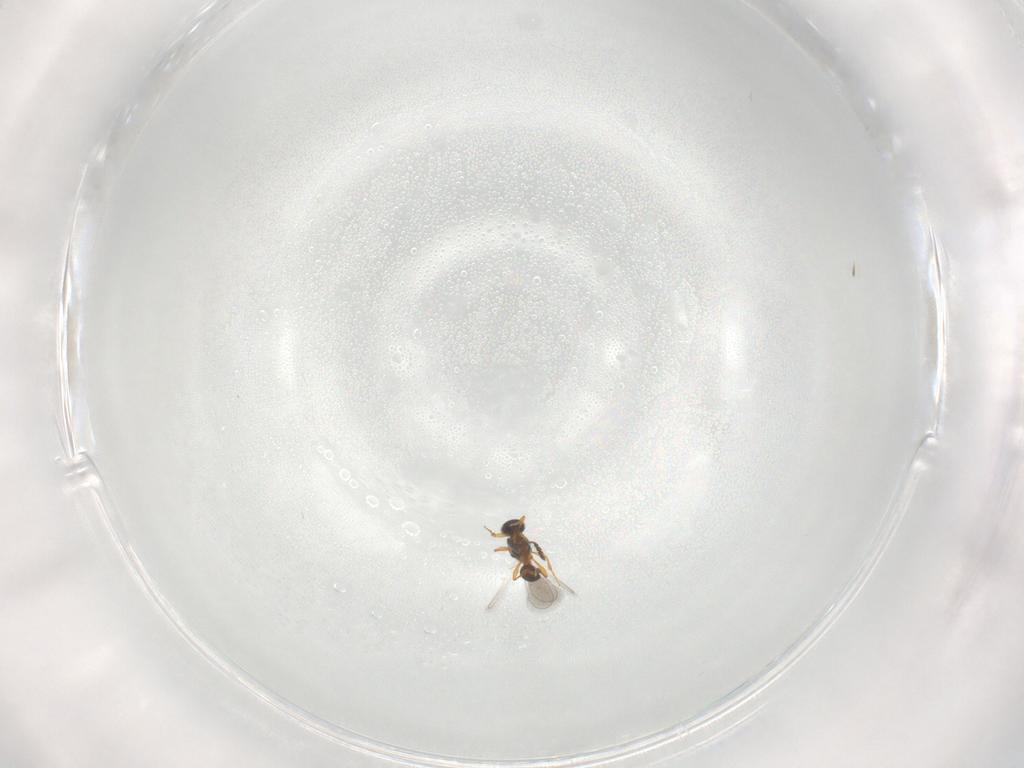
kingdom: Animalia
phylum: Arthropoda
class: Insecta
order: Hymenoptera
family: Platygastridae
